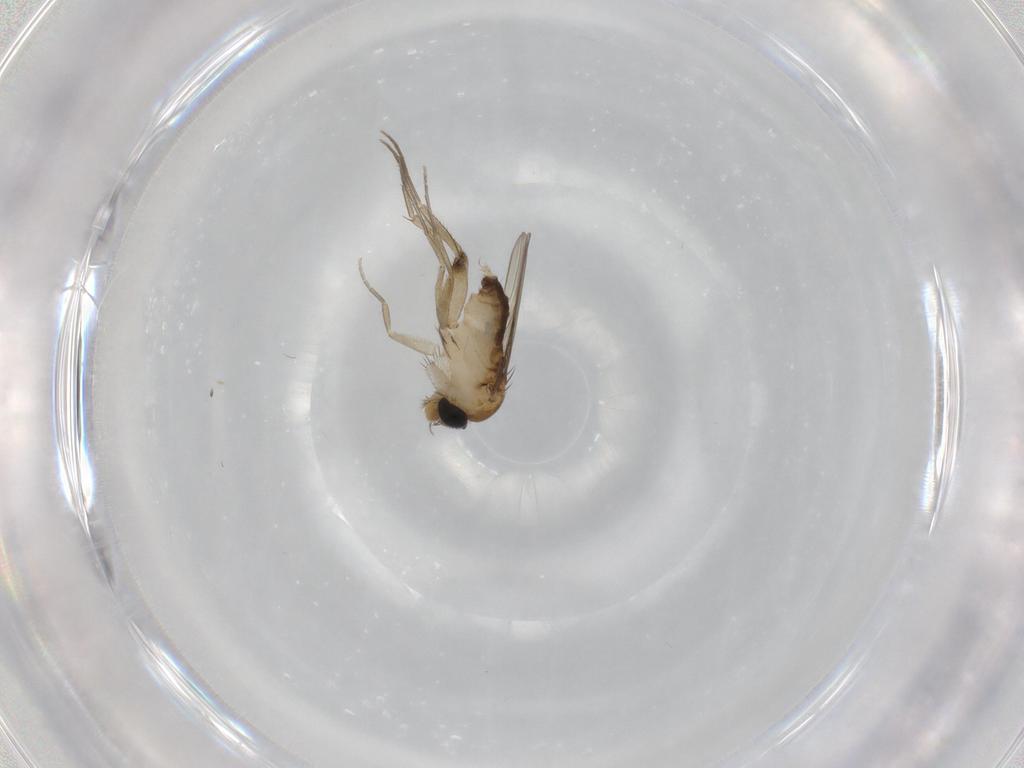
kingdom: Animalia
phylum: Arthropoda
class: Insecta
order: Diptera
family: Phoridae
